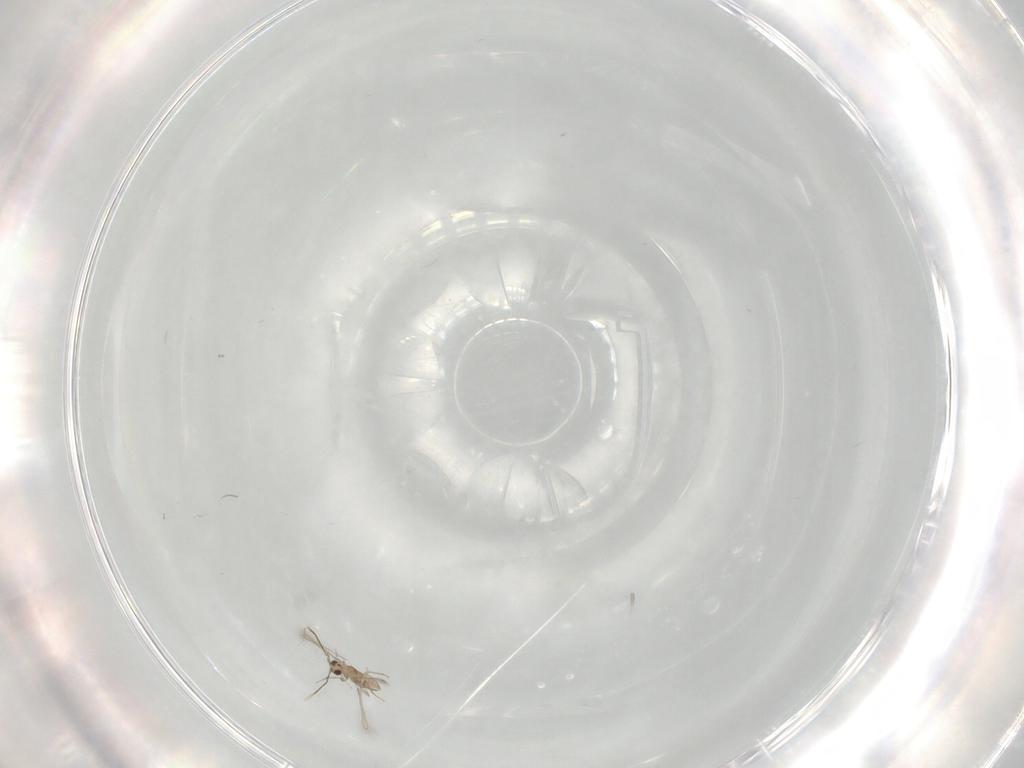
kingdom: Animalia
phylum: Arthropoda
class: Insecta
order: Hymenoptera
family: Mymaridae
